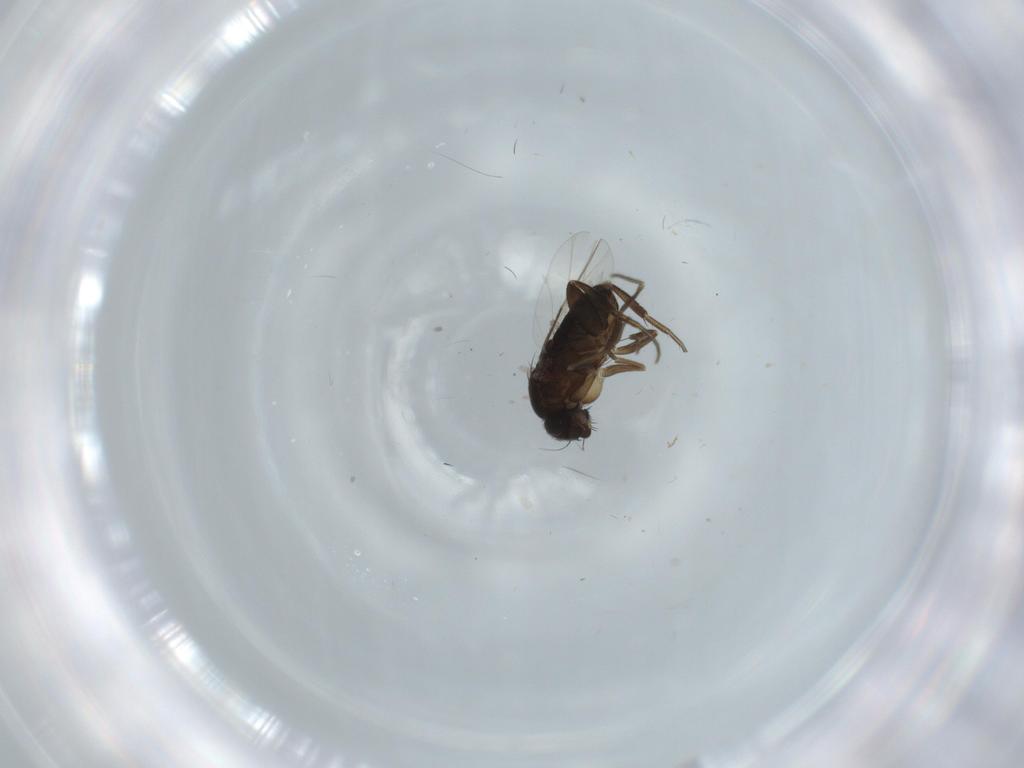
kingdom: Animalia
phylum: Arthropoda
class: Insecta
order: Diptera
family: Phoridae
